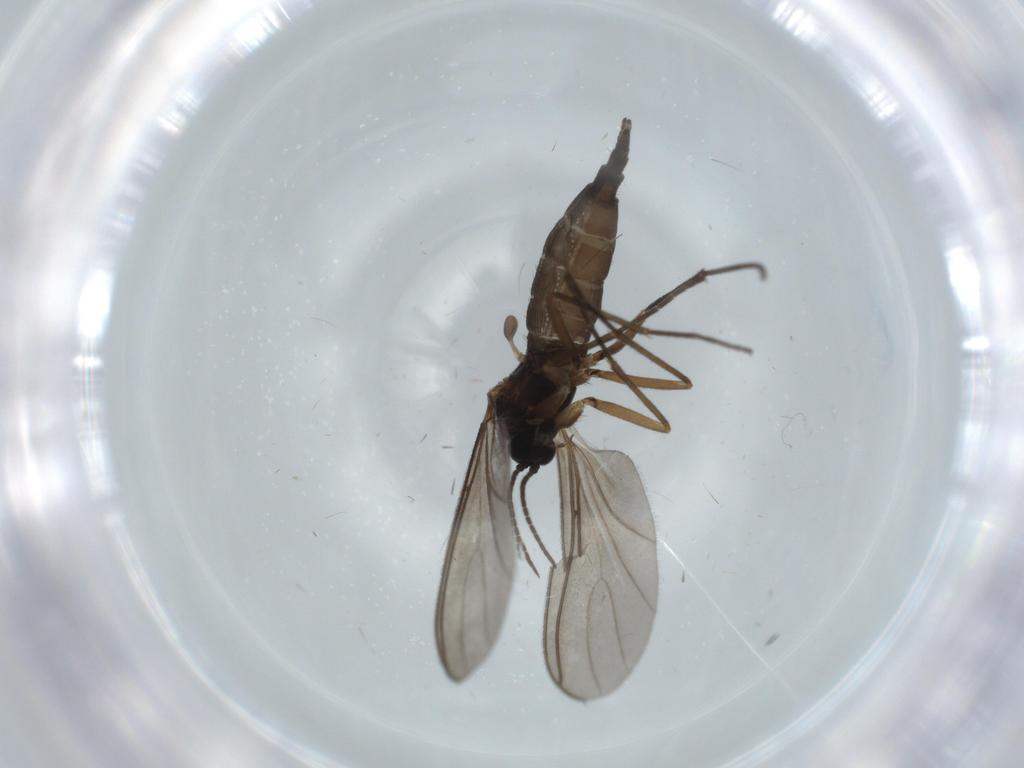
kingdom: Animalia
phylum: Arthropoda
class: Insecta
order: Diptera
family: Sciaridae
